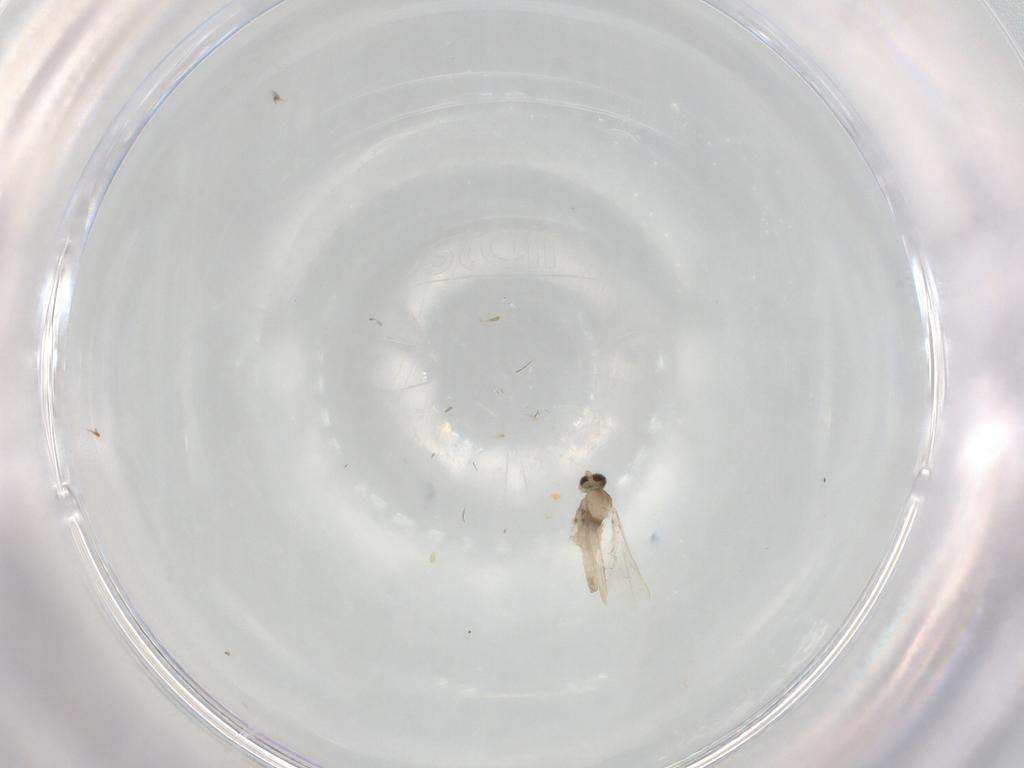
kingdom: Animalia
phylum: Arthropoda
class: Insecta
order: Diptera
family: Cecidomyiidae
